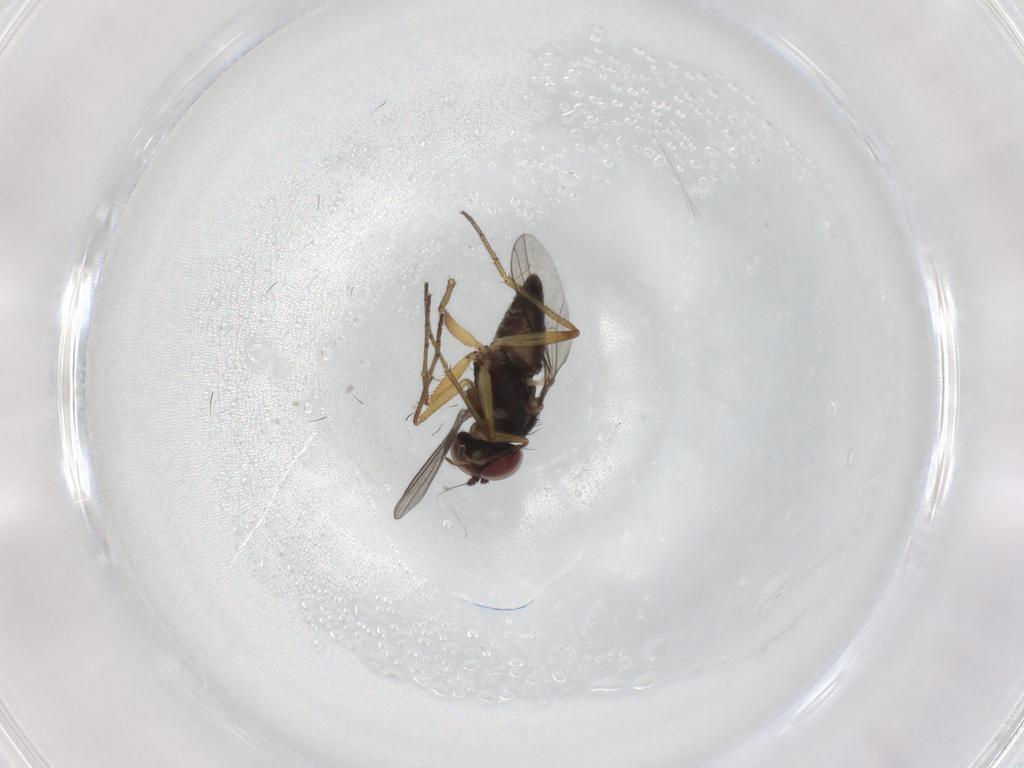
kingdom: Animalia
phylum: Arthropoda
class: Insecta
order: Diptera
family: Dolichopodidae
